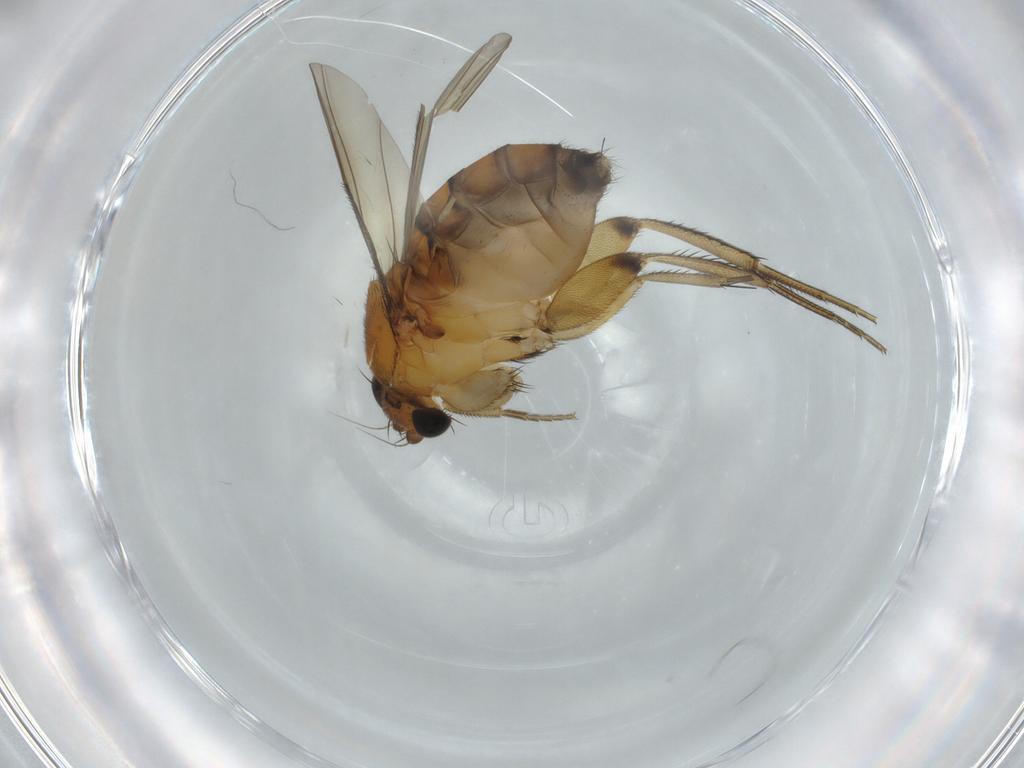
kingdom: Animalia
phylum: Arthropoda
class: Insecta
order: Diptera
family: Phoridae
